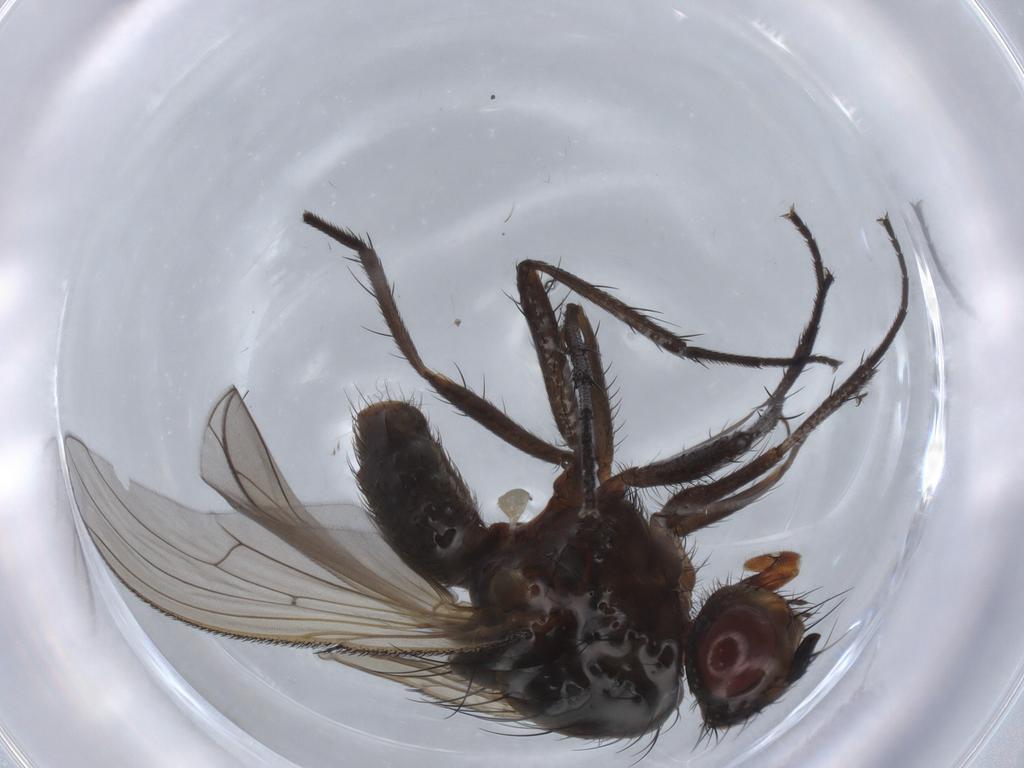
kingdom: Animalia
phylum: Arthropoda
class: Insecta
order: Diptera
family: Anthomyiidae
